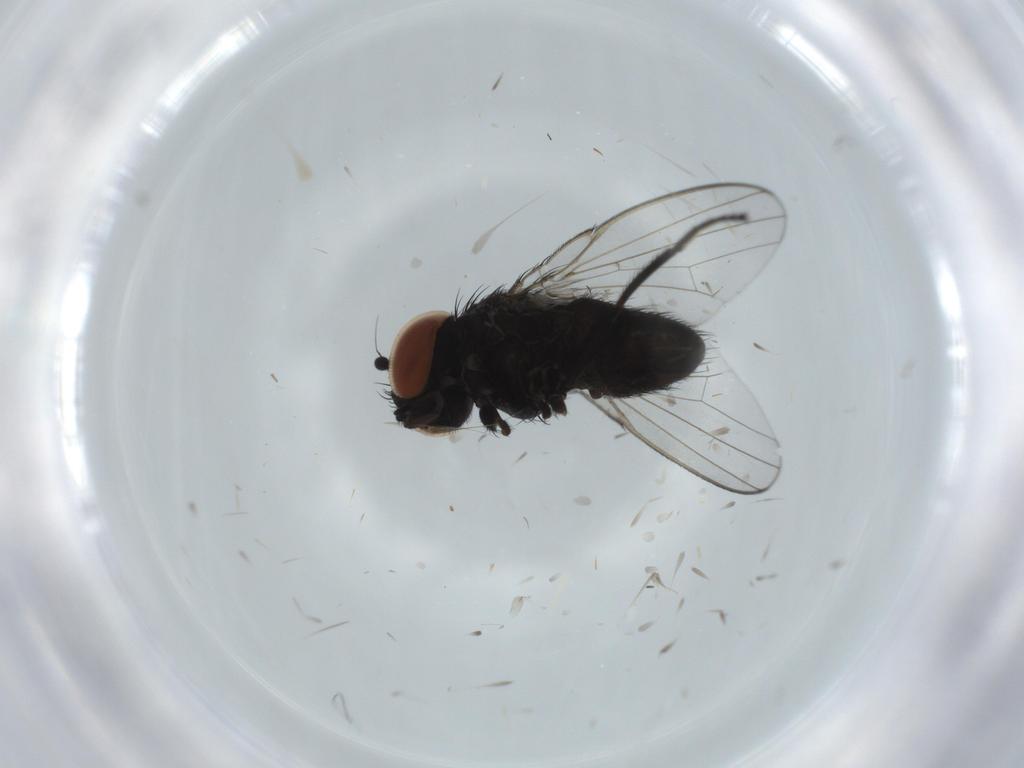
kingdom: Animalia
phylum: Arthropoda
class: Insecta
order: Diptera
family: Milichiidae
